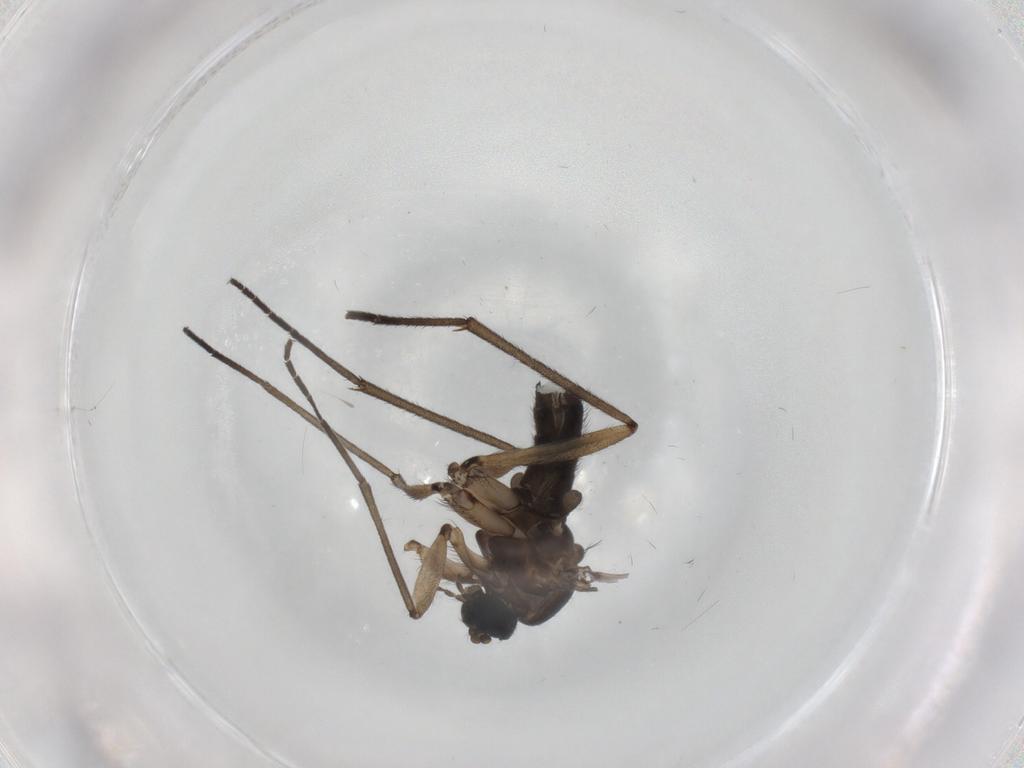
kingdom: Animalia
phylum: Arthropoda
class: Insecta
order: Diptera
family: Sciaridae
